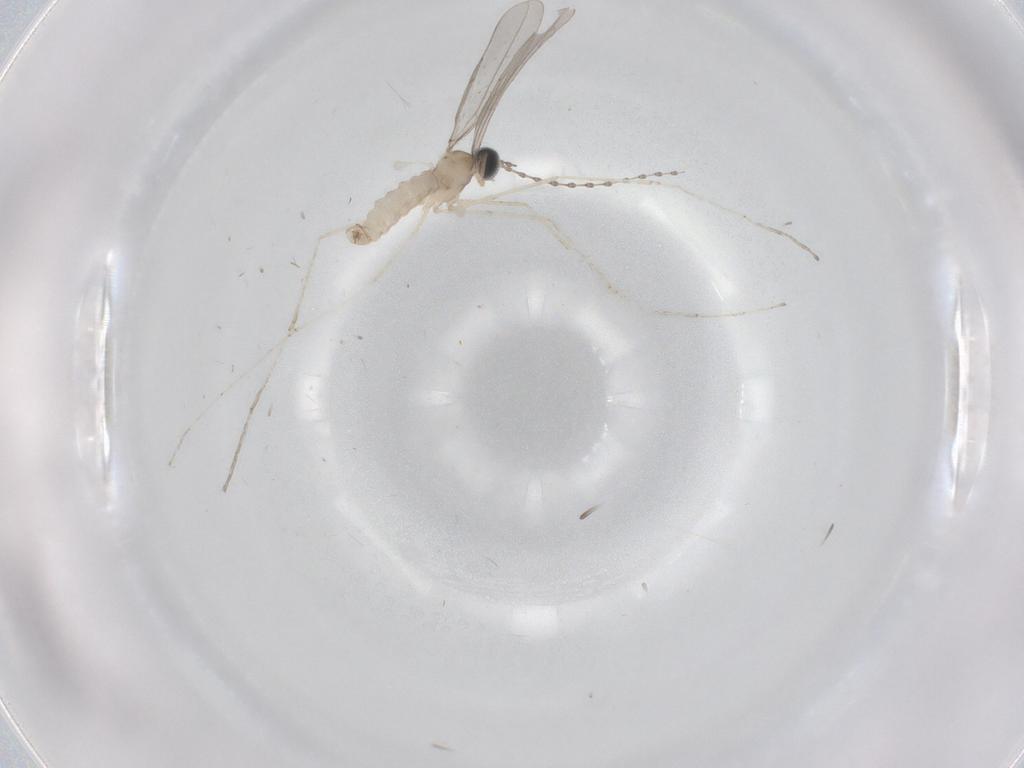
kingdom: Animalia
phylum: Arthropoda
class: Insecta
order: Diptera
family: Cecidomyiidae
